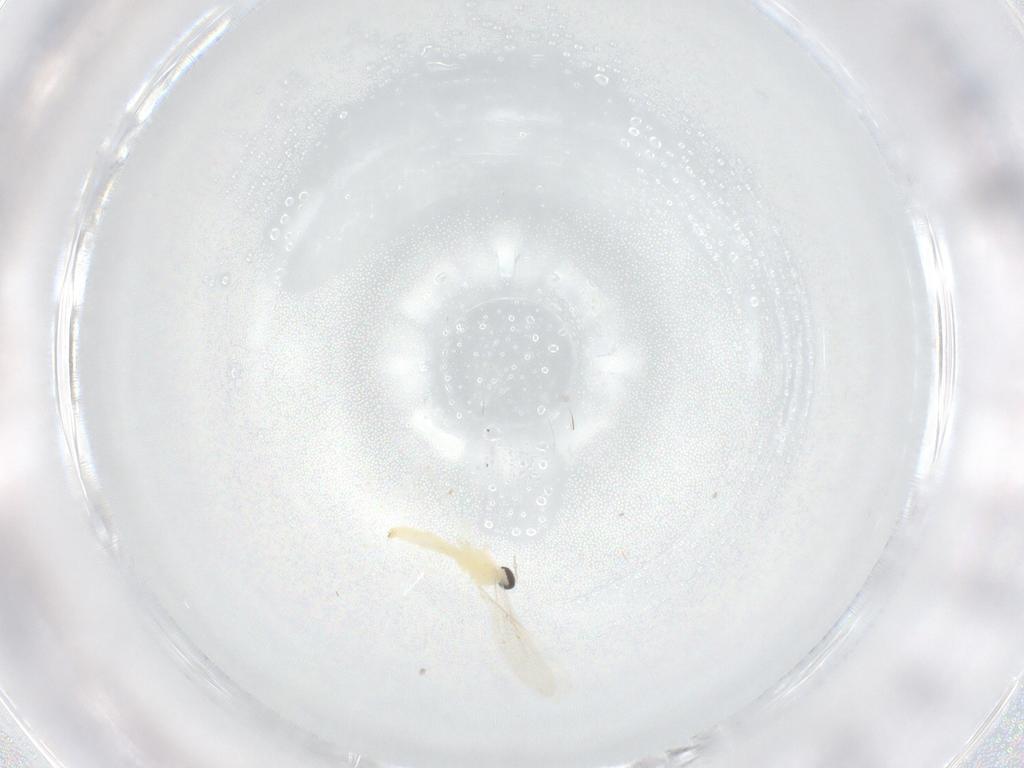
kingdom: Animalia
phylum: Arthropoda
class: Insecta
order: Diptera
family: Cecidomyiidae
